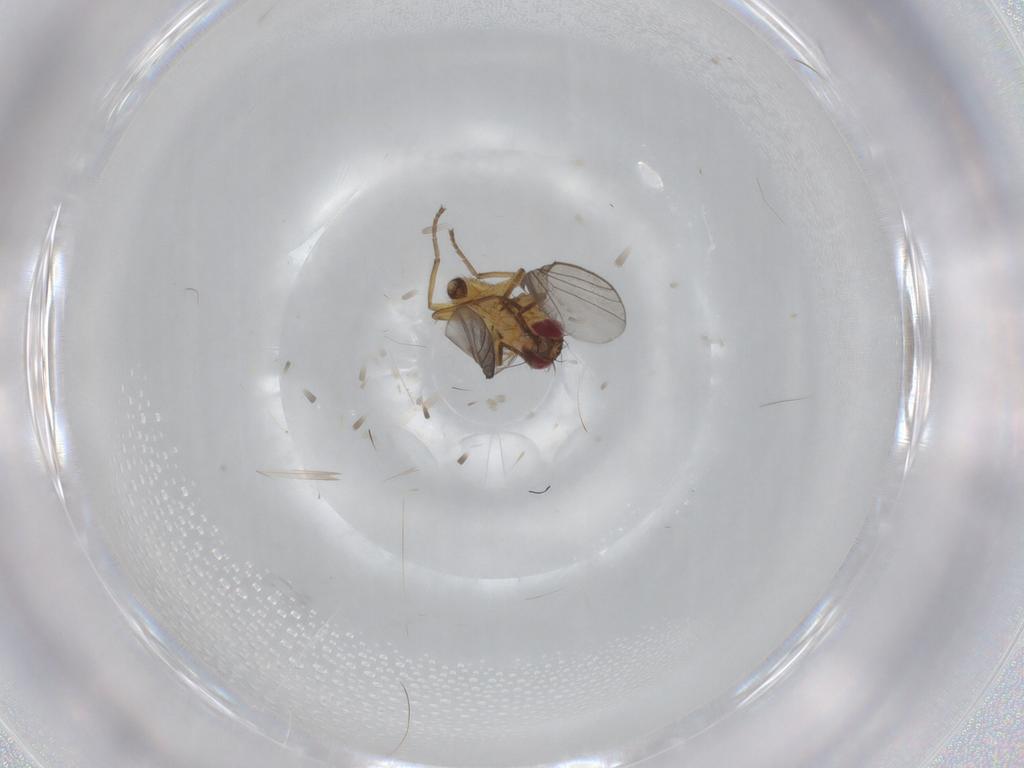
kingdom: Animalia
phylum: Arthropoda
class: Insecta
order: Diptera
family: Agromyzidae
